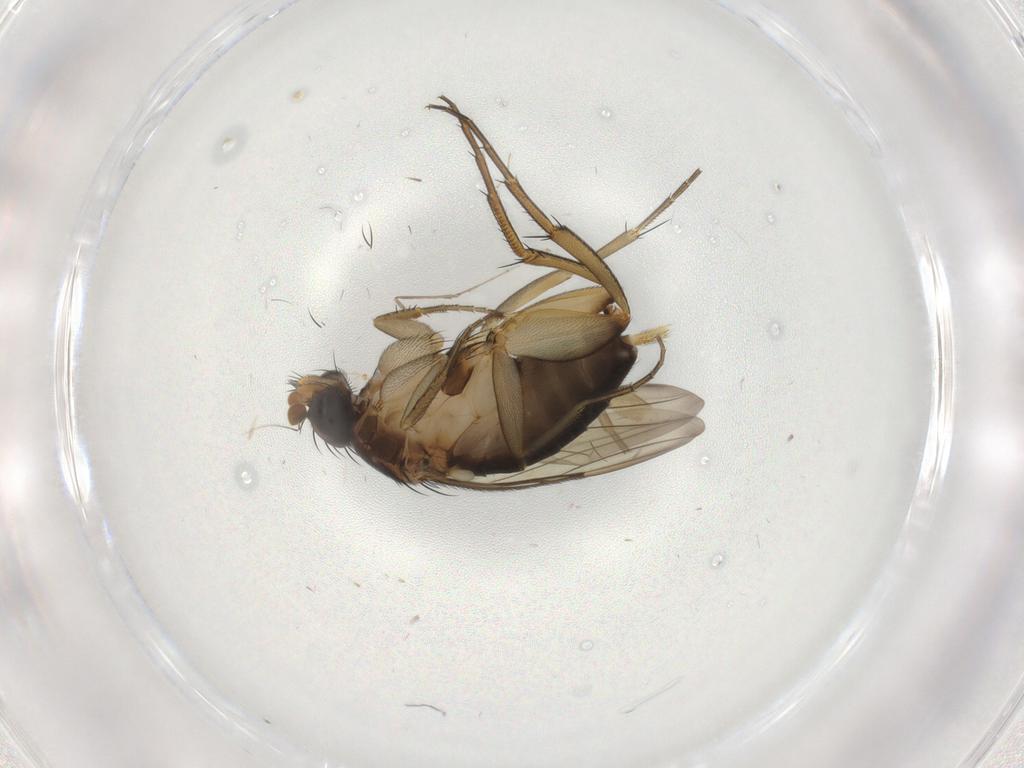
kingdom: Animalia
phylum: Arthropoda
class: Insecta
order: Diptera
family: Phoridae
